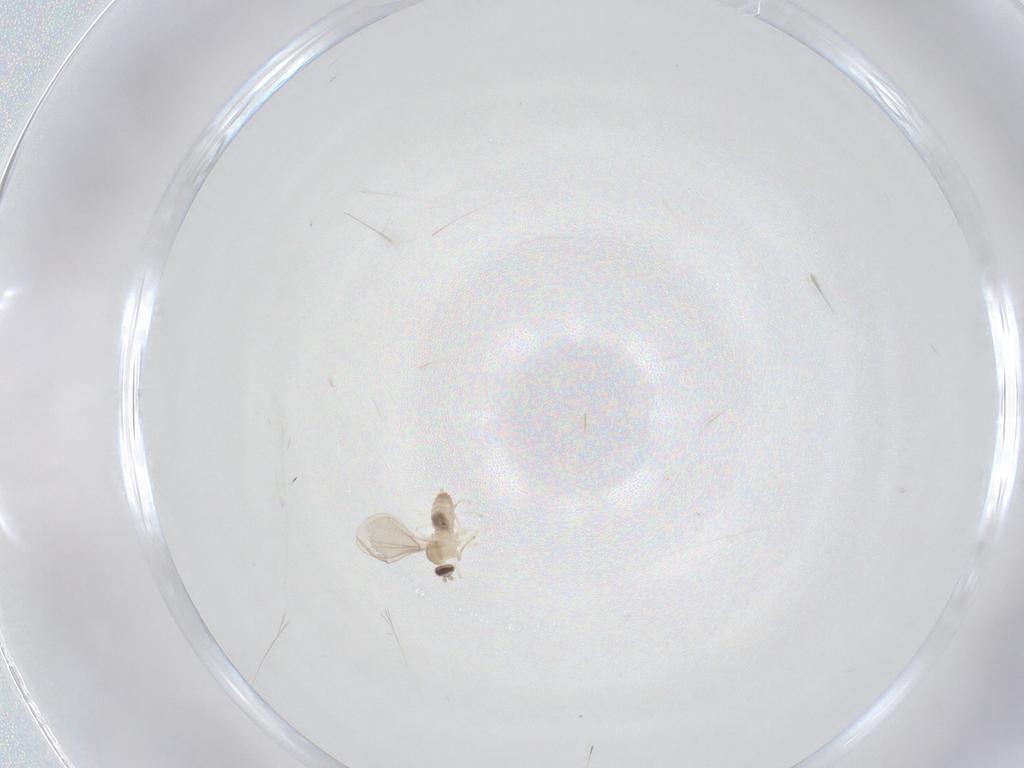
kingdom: Animalia
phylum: Arthropoda
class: Insecta
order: Diptera
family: Cecidomyiidae
